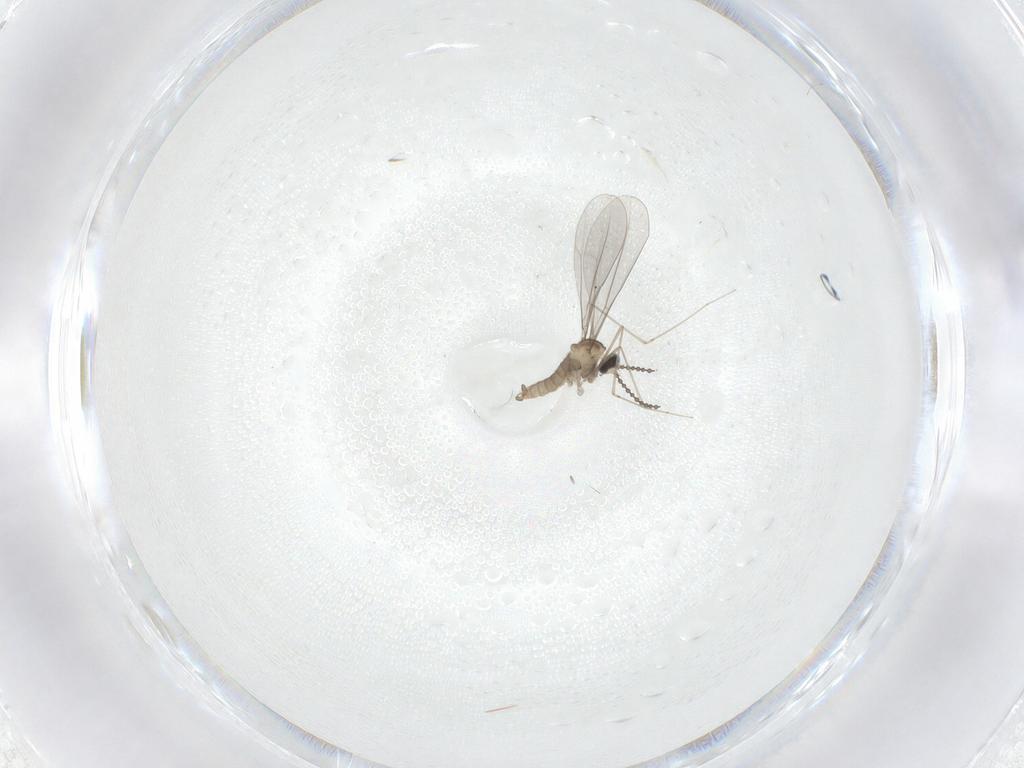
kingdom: Animalia
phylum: Arthropoda
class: Insecta
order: Diptera
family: Cecidomyiidae
